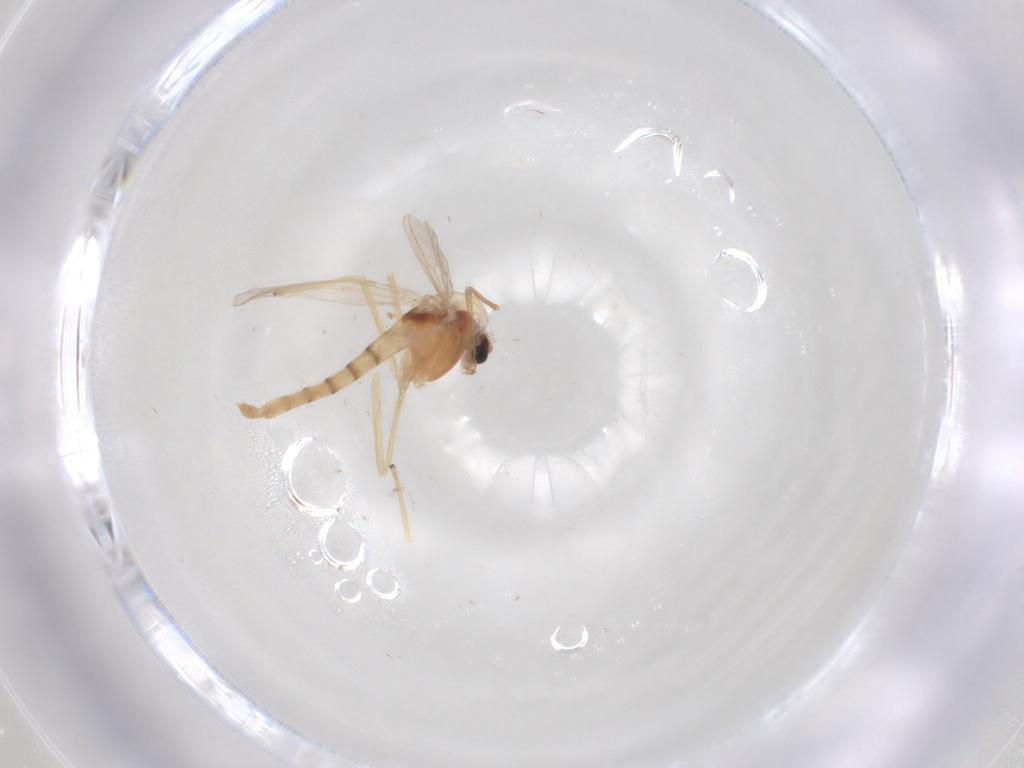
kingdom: Animalia
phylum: Arthropoda
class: Insecta
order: Diptera
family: Chironomidae
